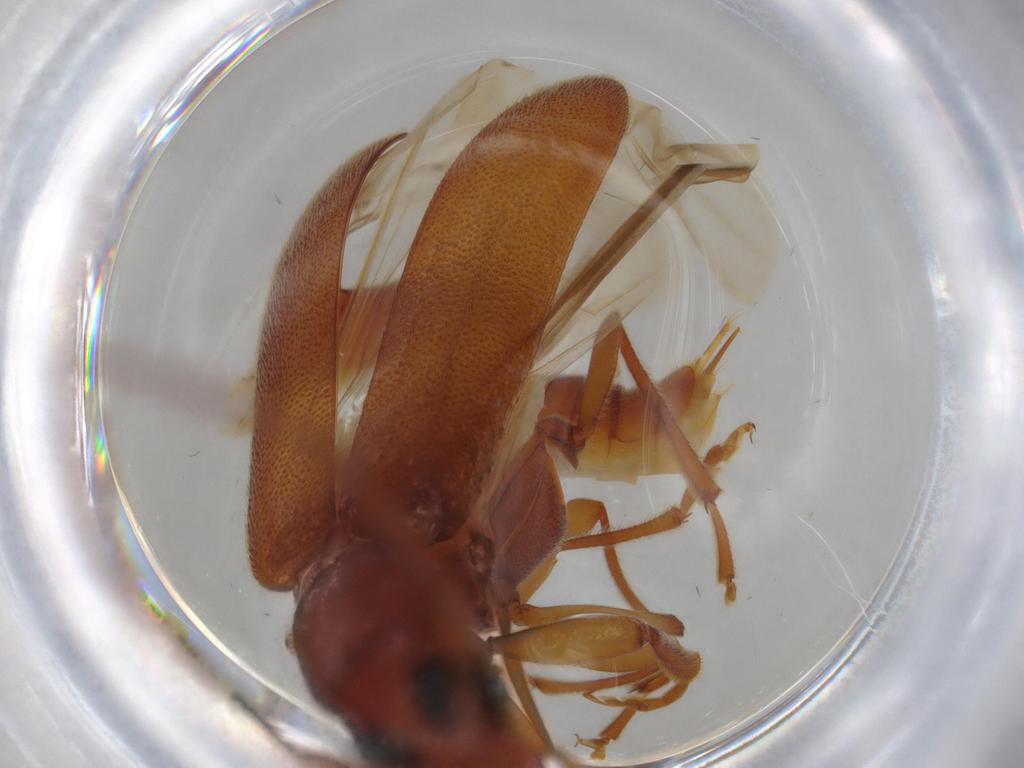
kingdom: Animalia
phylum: Arthropoda
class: Insecta
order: Coleoptera
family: Oedemeridae
